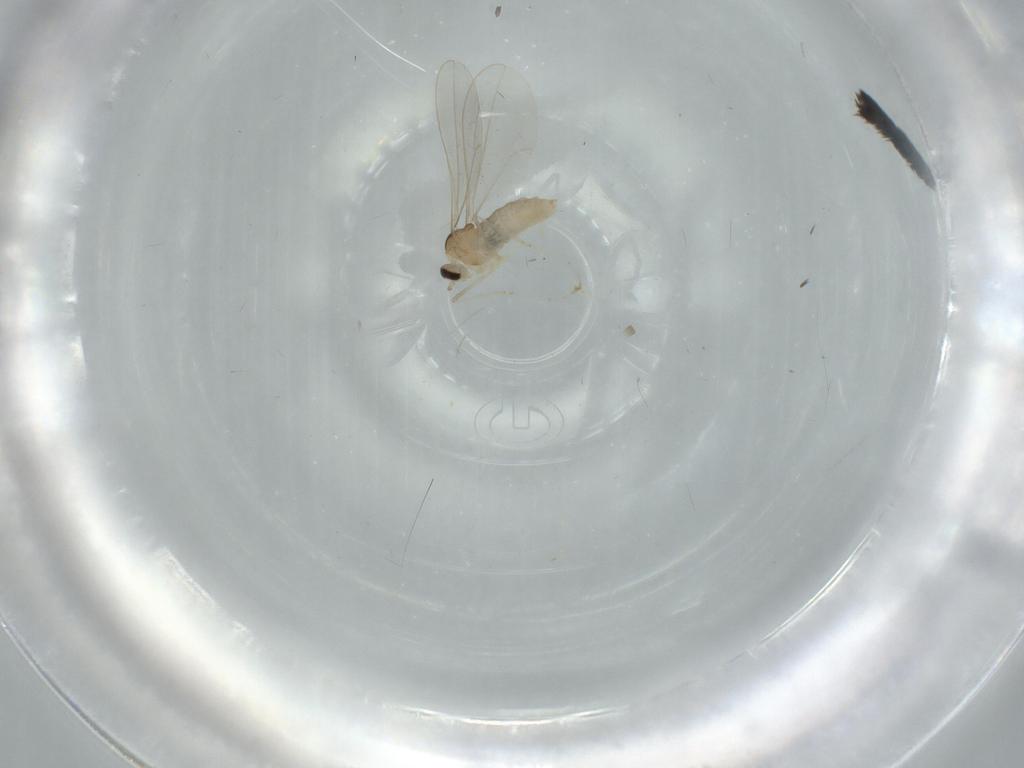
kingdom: Animalia
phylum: Arthropoda
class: Insecta
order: Diptera
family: Cecidomyiidae
